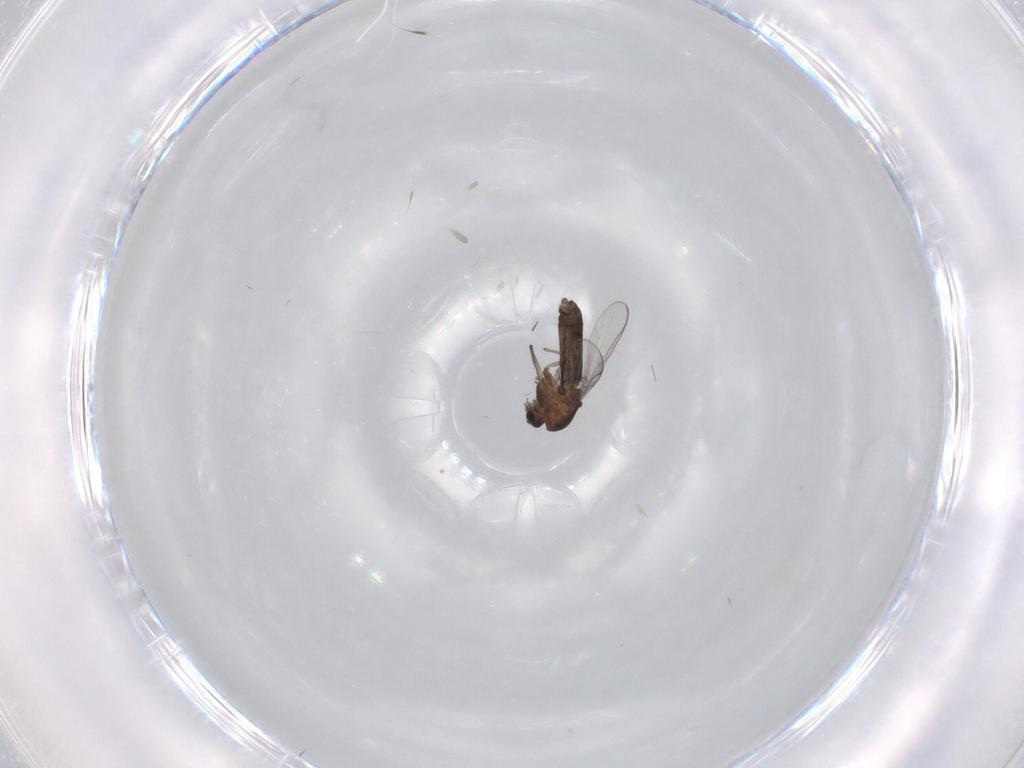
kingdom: Animalia
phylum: Arthropoda
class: Insecta
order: Diptera
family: Chironomidae
